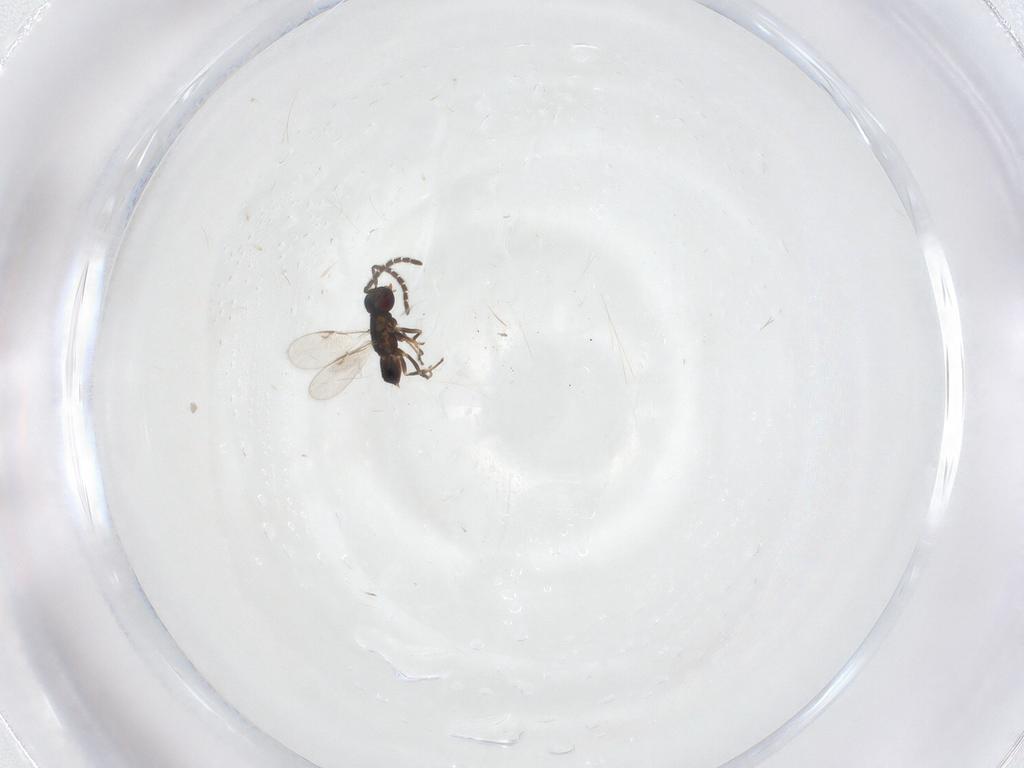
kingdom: Animalia
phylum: Arthropoda
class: Insecta
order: Hymenoptera
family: Encyrtidae
